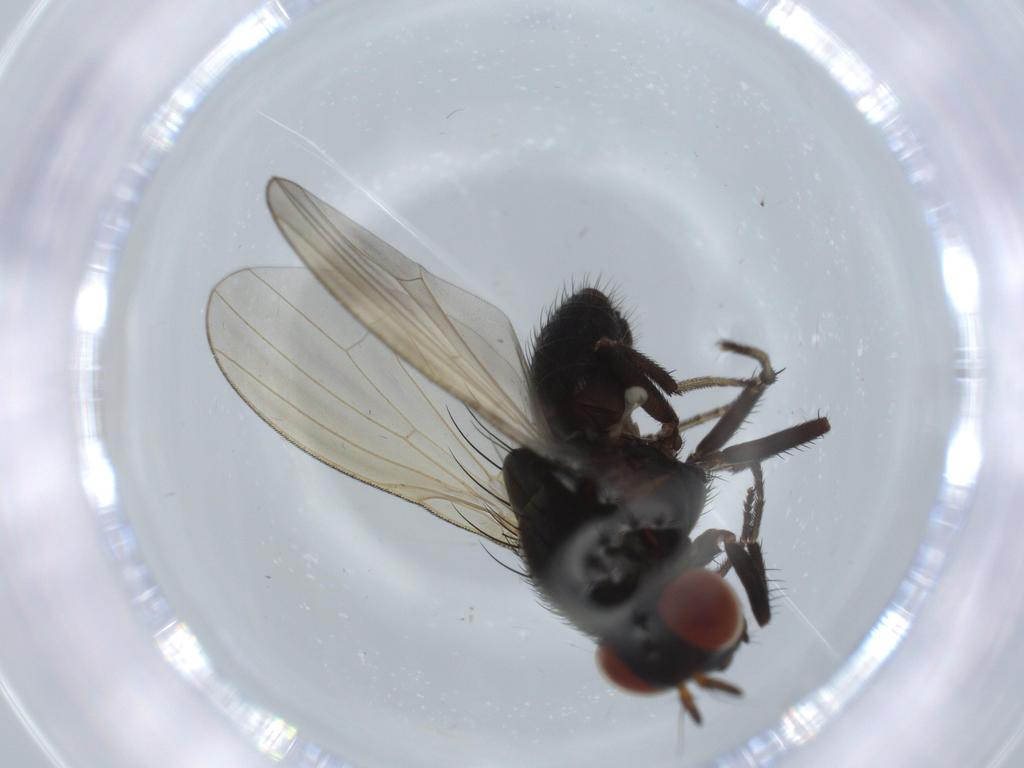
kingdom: Animalia
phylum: Arthropoda
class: Insecta
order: Diptera
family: Lauxaniidae
